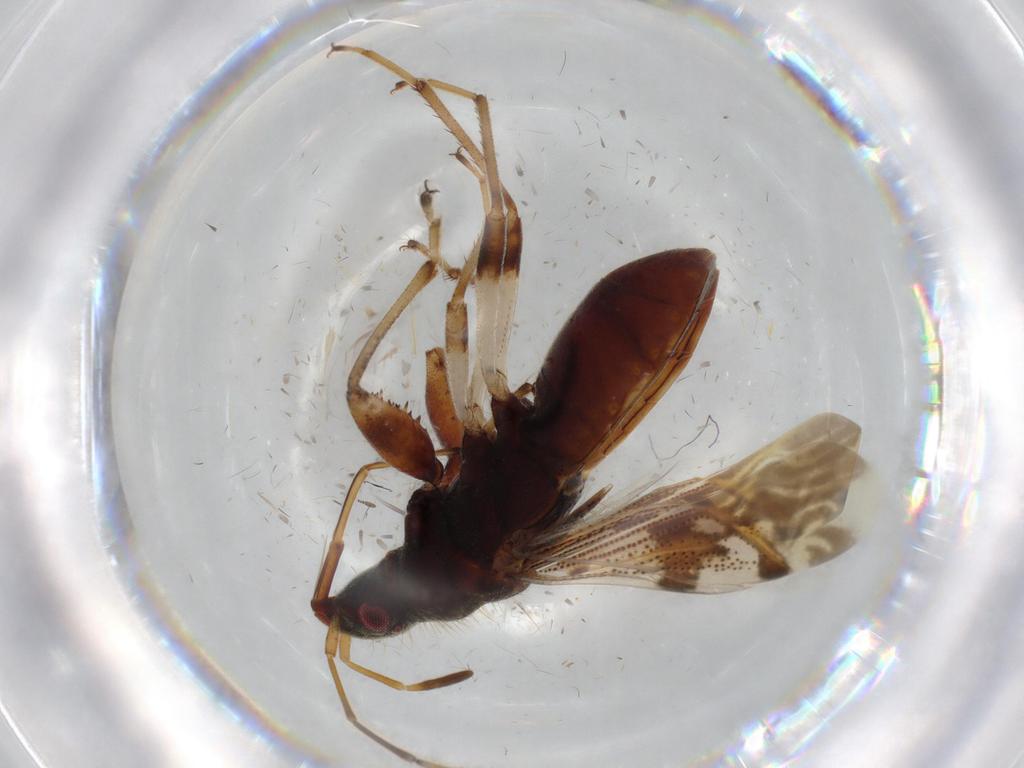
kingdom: Animalia
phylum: Arthropoda
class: Insecta
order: Hemiptera
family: Rhyparochromidae
